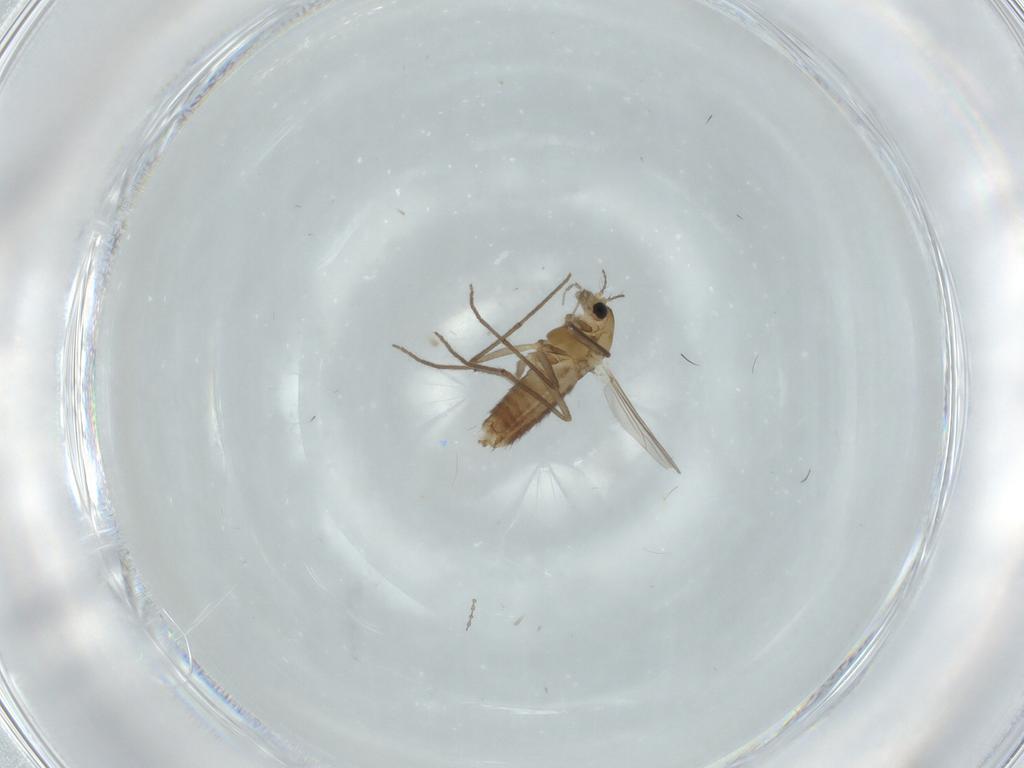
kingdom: Animalia
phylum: Arthropoda
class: Insecta
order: Diptera
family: Chironomidae
